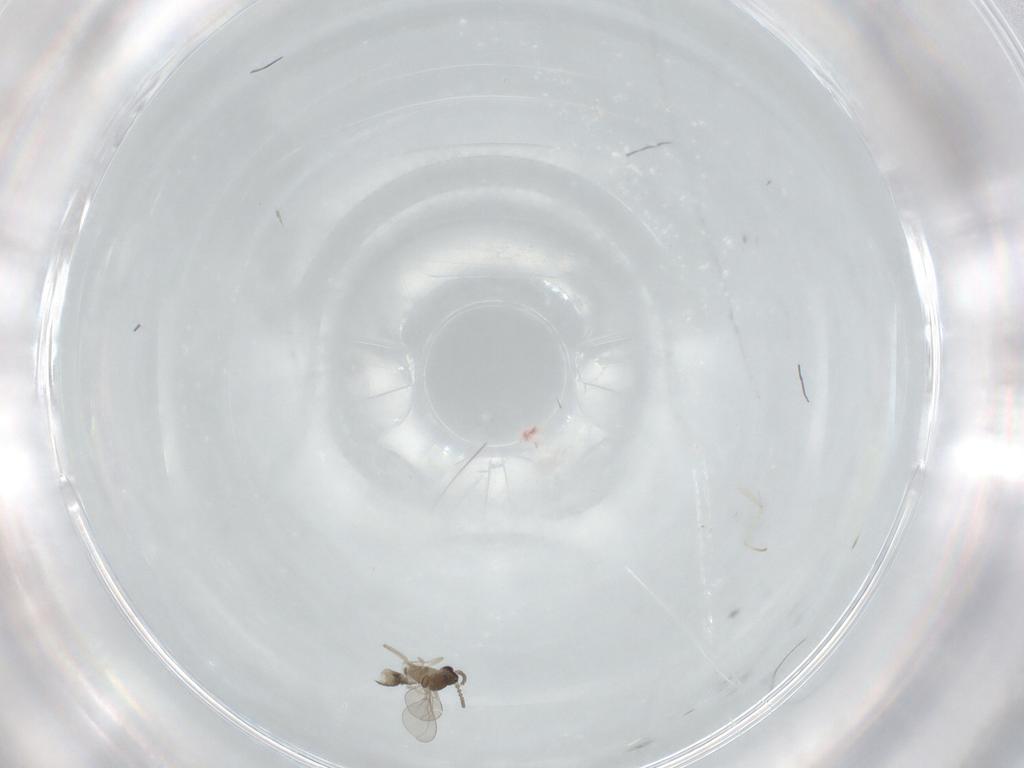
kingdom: Animalia
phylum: Arthropoda
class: Insecta
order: Diptera
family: Cecidomyiidae
